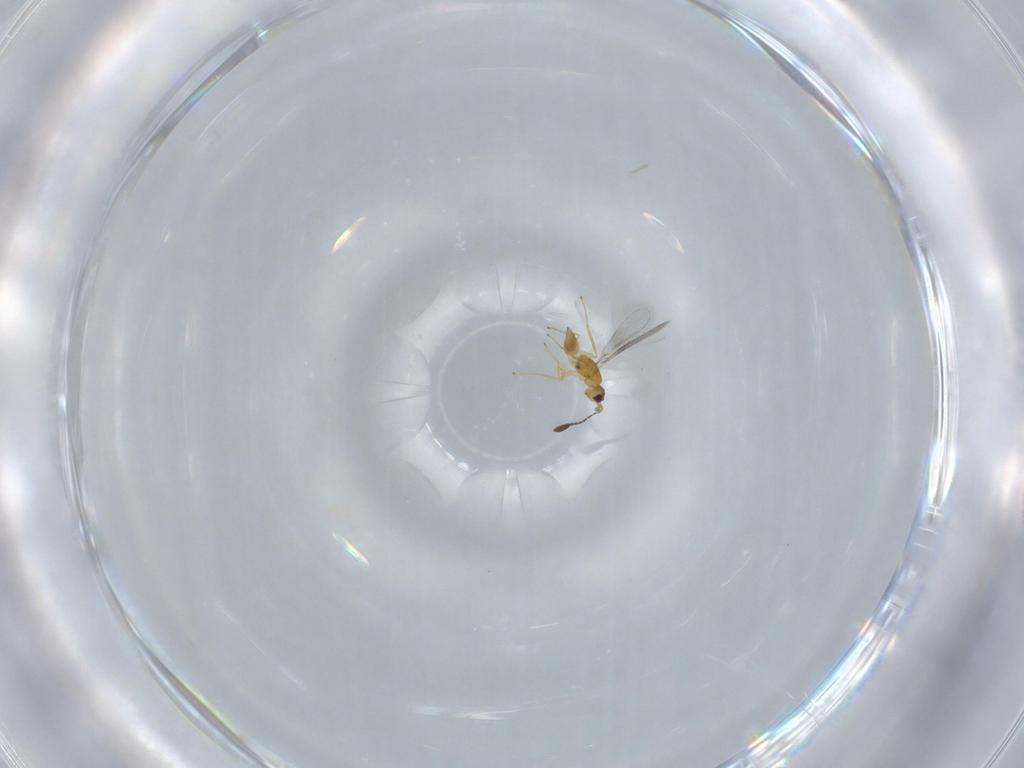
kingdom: Animalia
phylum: Arthropoda
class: Insecta
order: Hymenoptera
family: Mymaridae
